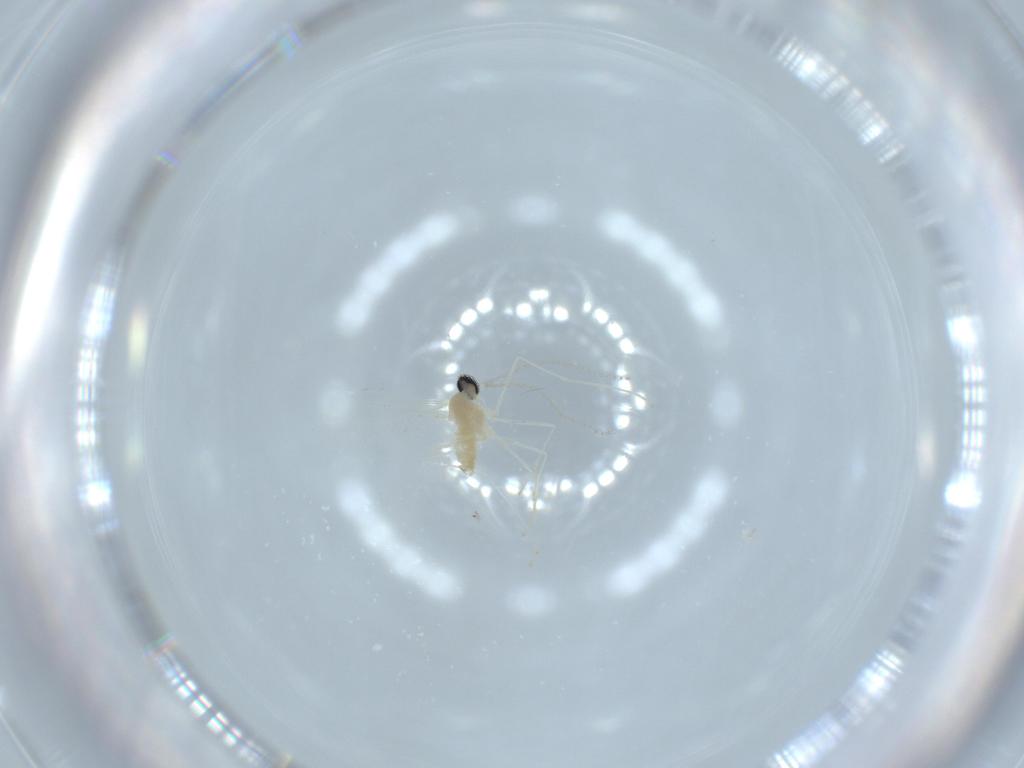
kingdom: Animalia
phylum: Arthropoda
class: Insecta
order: Diptera
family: Cecidomyiidae
